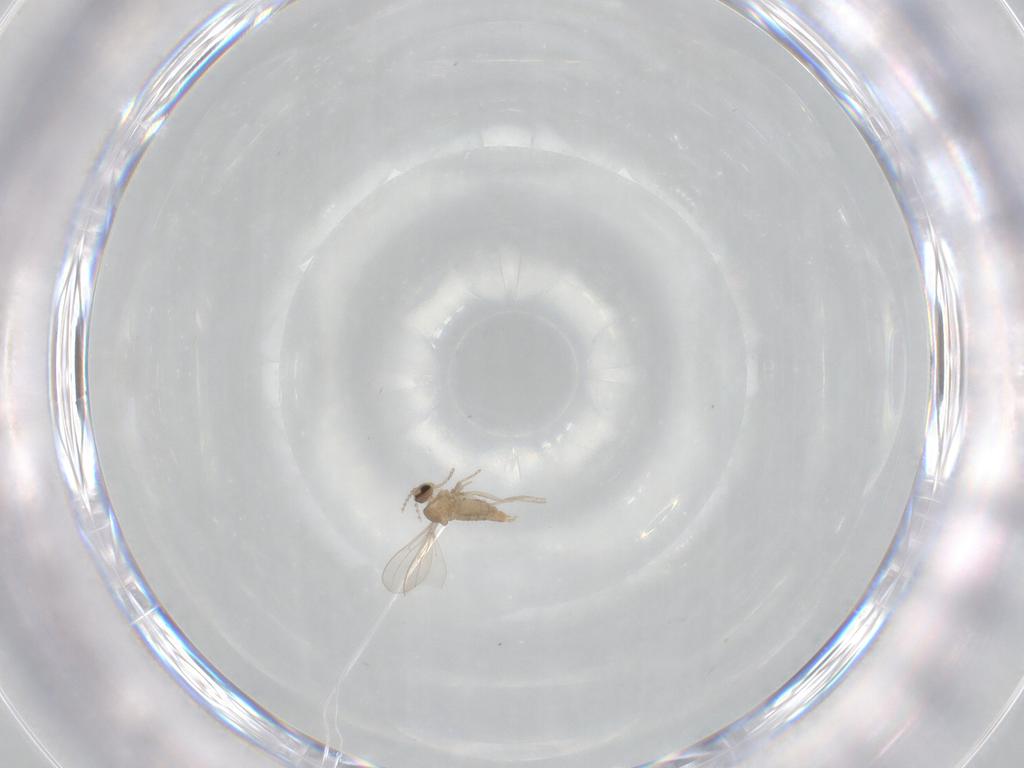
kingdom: Animalia
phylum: Arthropoda
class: Insecta
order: Diptera
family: Cecidomyiidae
